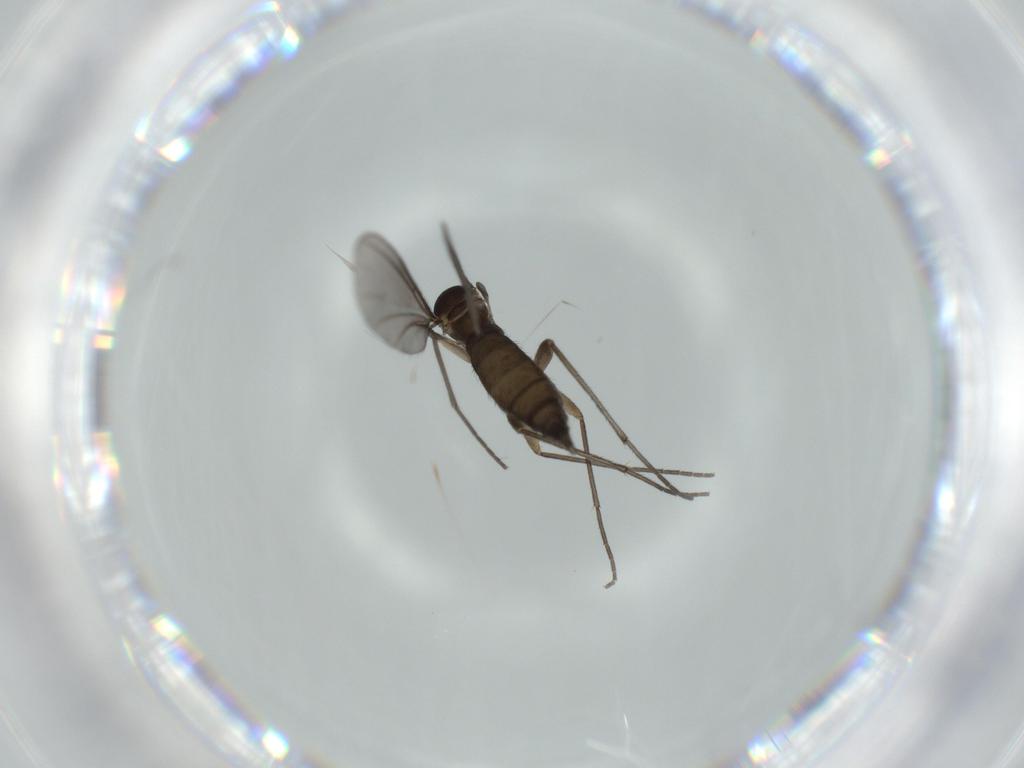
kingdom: Animalia
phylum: Arthropoda
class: Insecta
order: Diptera
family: Sciaridae
